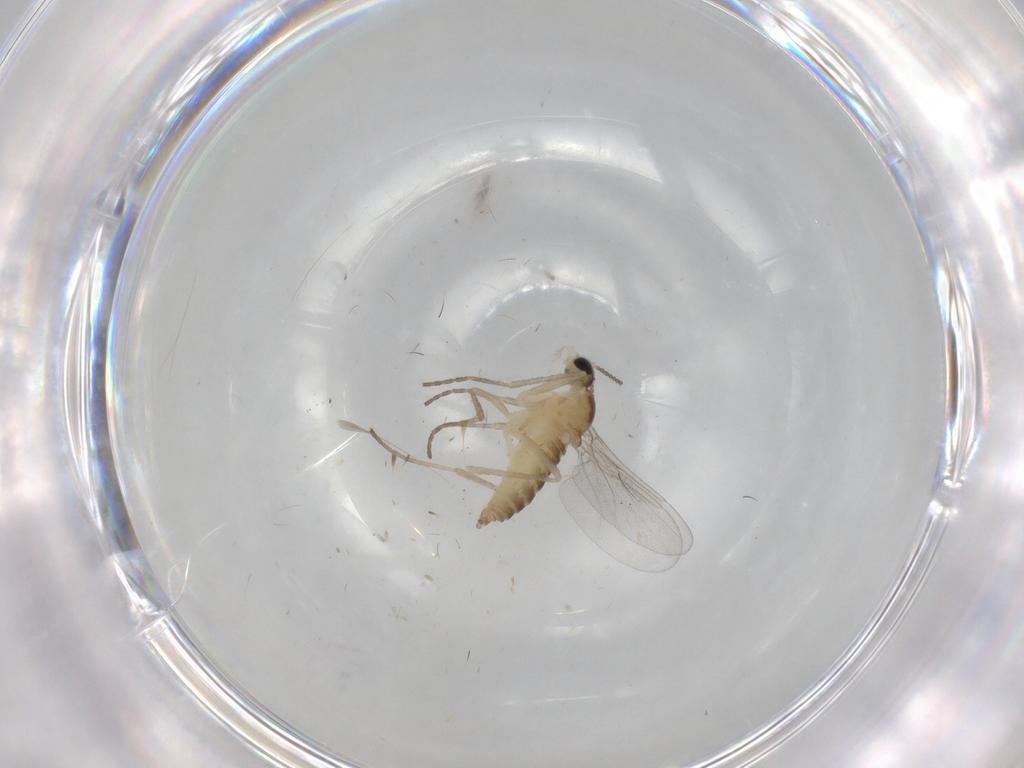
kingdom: Animalia
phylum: Arthropoda
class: Insecta
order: Diptera
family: Cecidomyiidae
